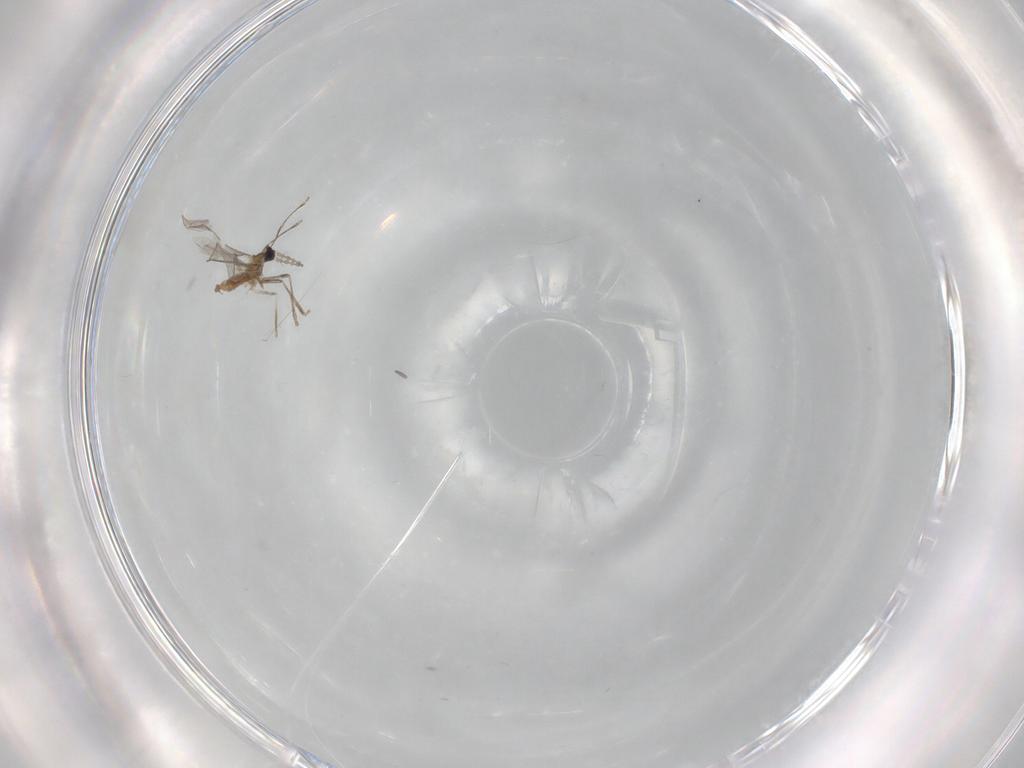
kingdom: Animalia
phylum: Arthropoda
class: Insecta
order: Diptera
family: Cecidomyiidae
